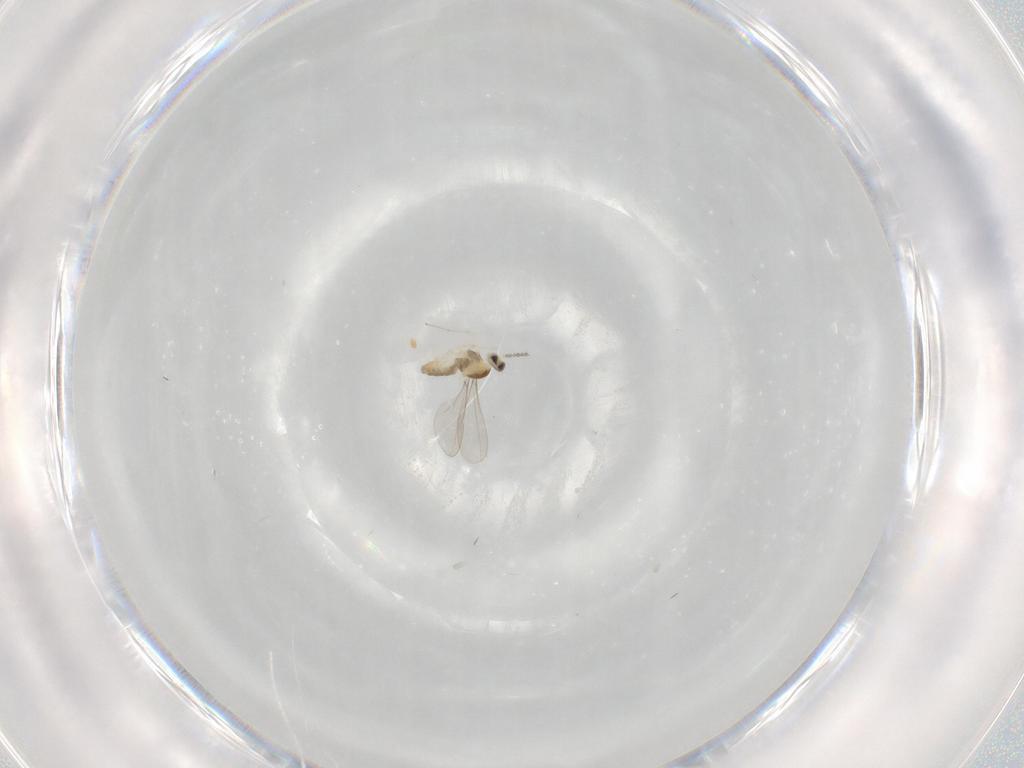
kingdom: Animalia
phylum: Arthropoda
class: Insecta
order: Diptera
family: Cecidomyiidae
